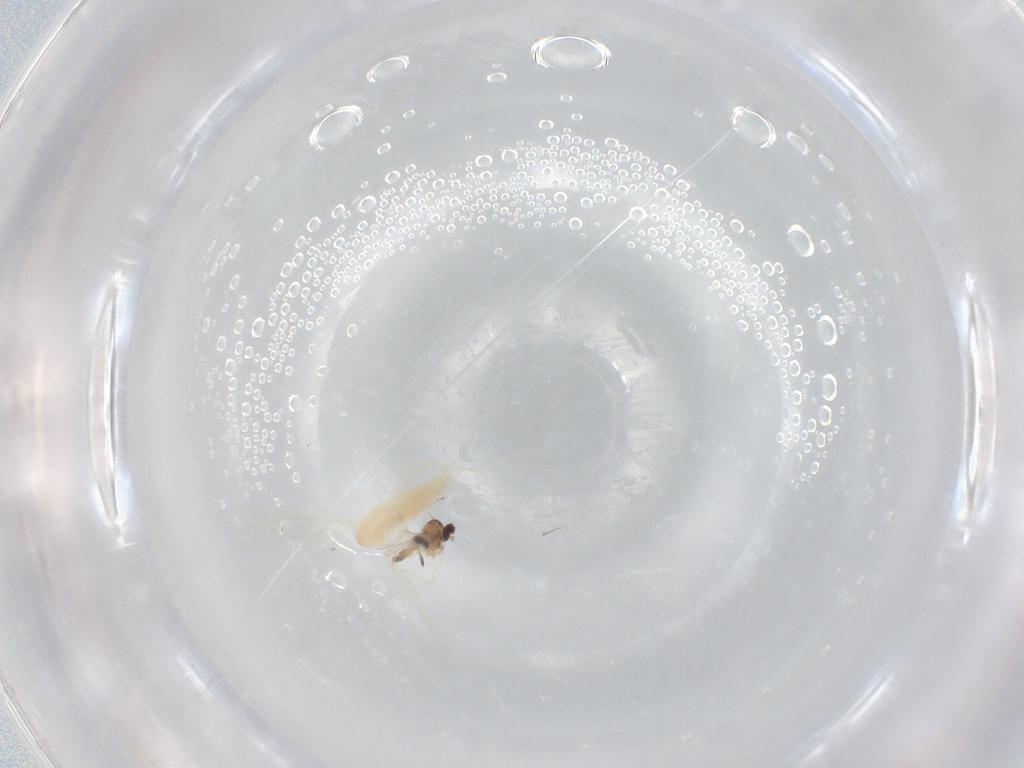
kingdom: Animalia
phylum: Arthropoda
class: Insecta
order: Diptera
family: Cecidomyiidae
